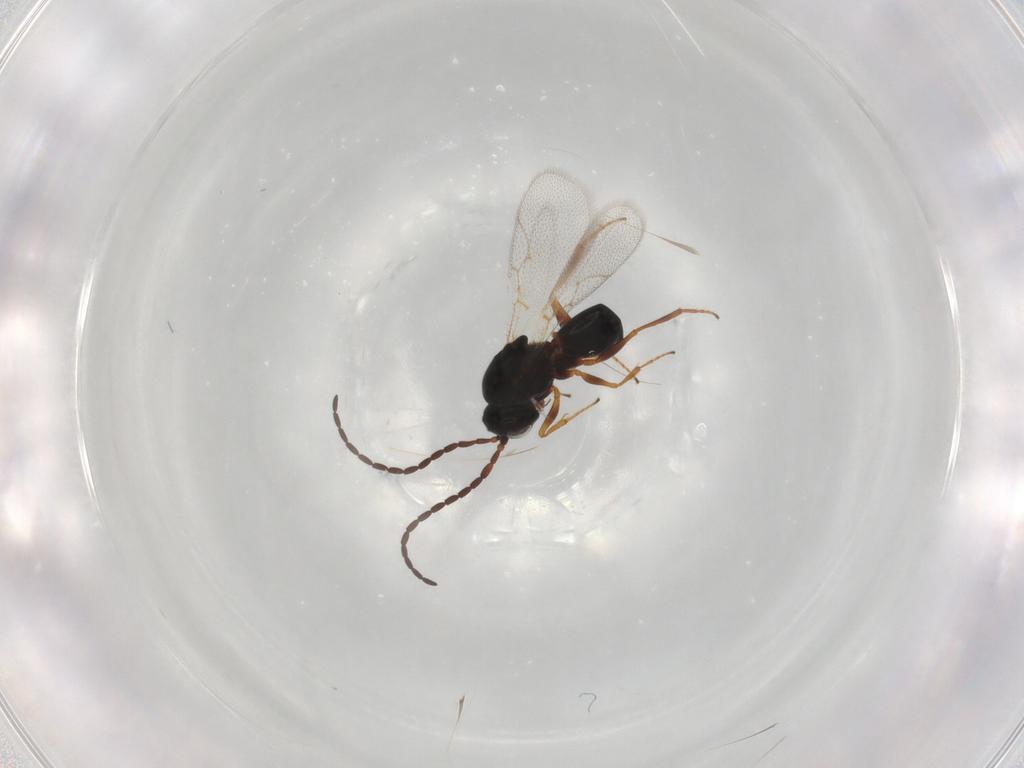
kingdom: Animalia
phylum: Arthropoda
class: Insecta
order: Hymenoptera
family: Figitidae
